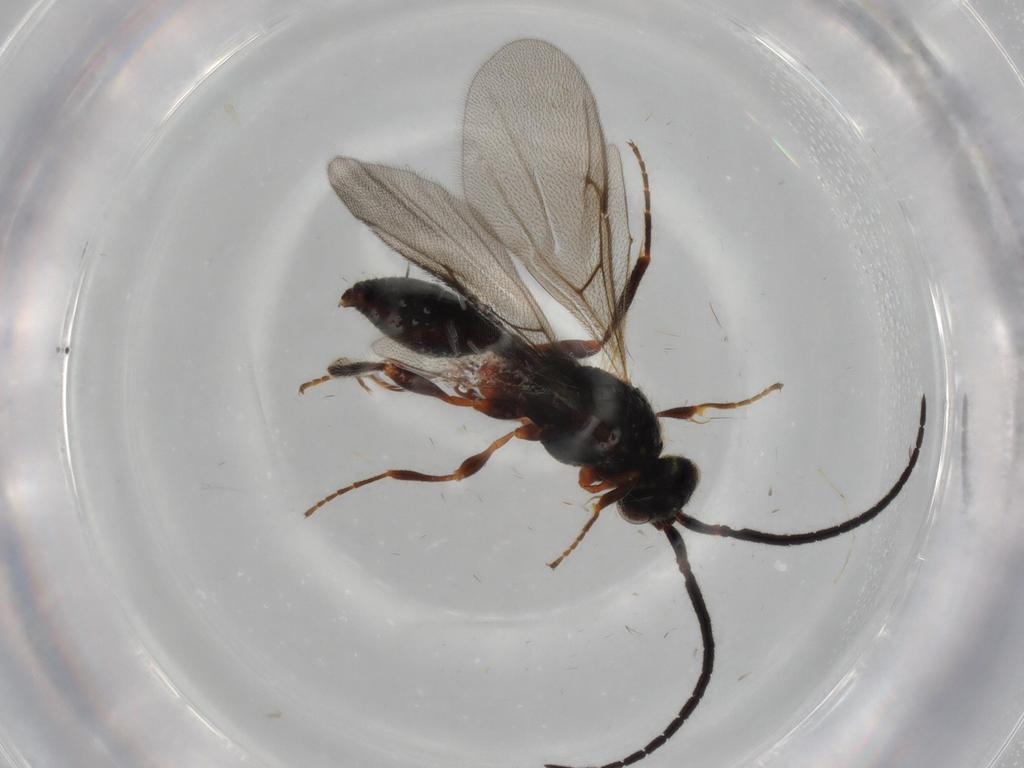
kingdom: Animalia
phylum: Arthropoda
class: Insecta
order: Hymenoptera
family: Diapriidae
